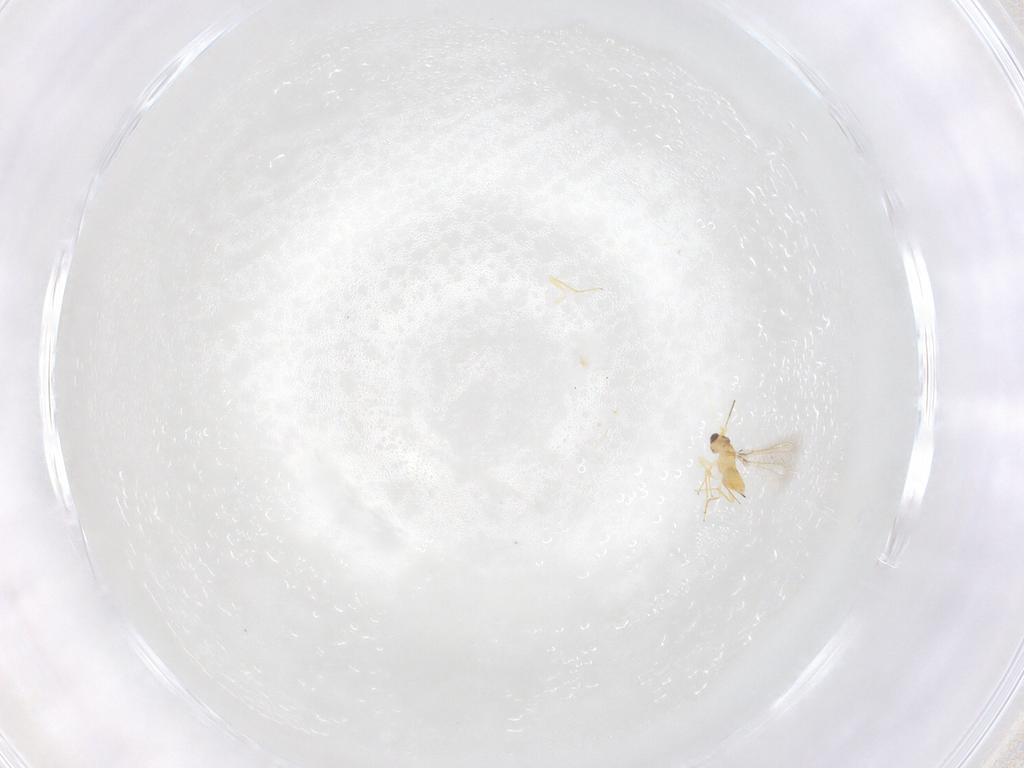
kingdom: Animalia
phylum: Arthropoda
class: Insecta
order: Hymenoptera
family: Mymaridae
